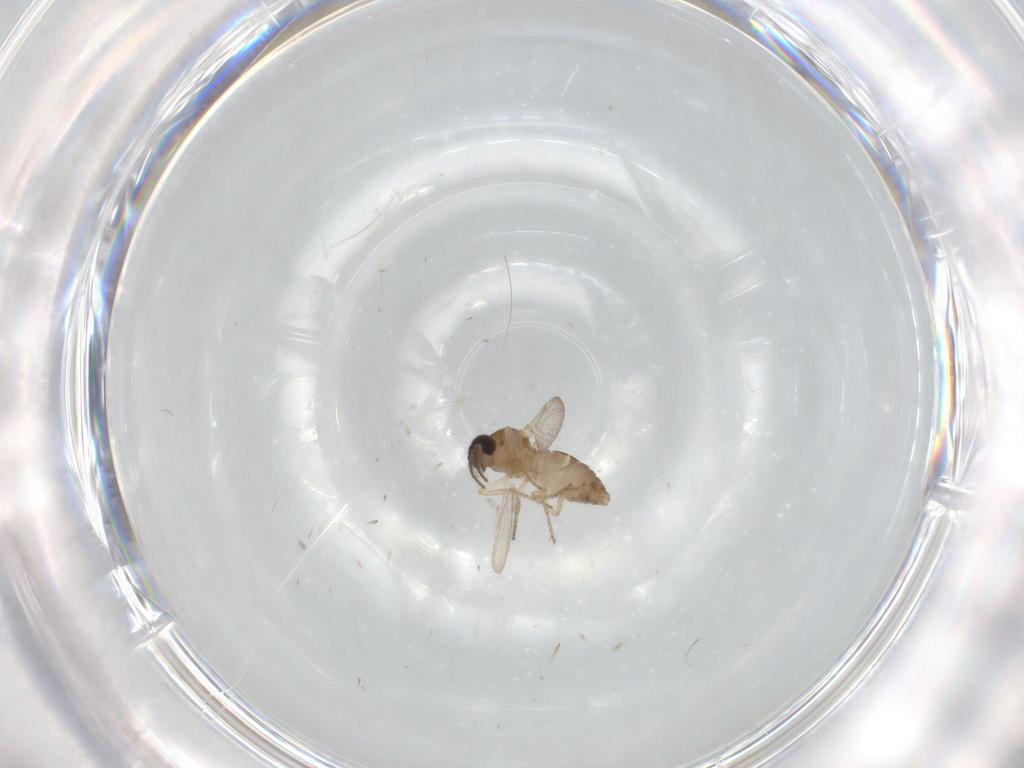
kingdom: Animalia
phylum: Arthropoda
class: Insecta
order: Diptera
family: Ceratopogonidae
